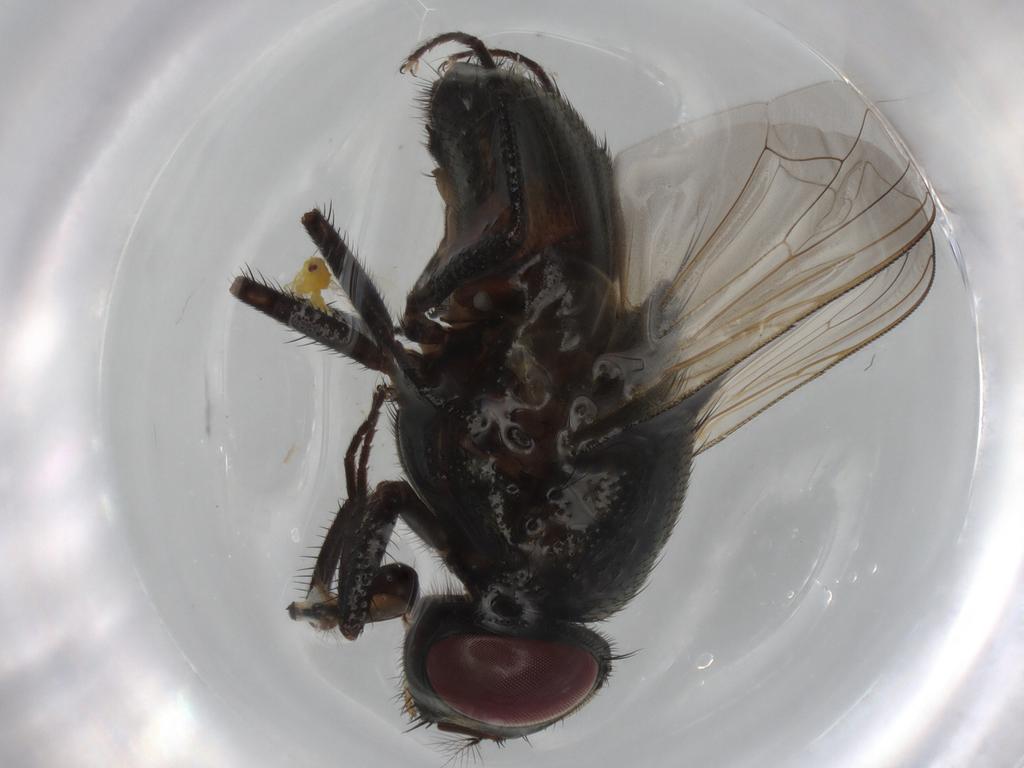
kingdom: Animalia
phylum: Arthropoda
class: Insecta
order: Diptera
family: Muscidae
